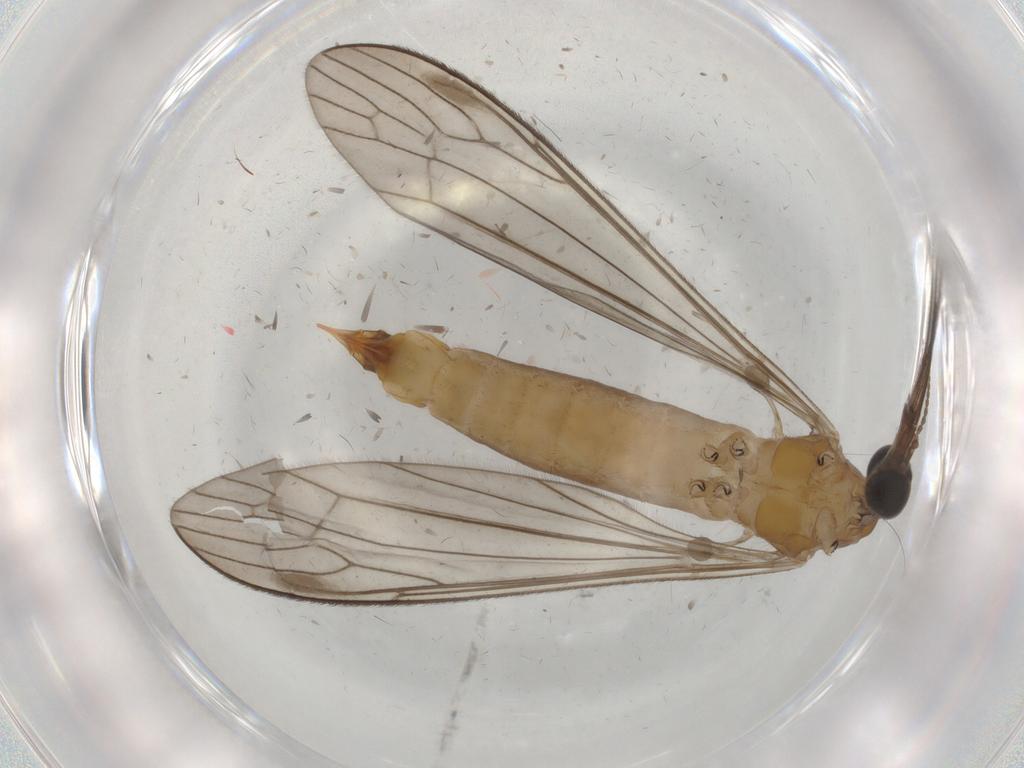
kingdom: Animalia
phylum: Arthropoda
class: Insecta
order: Diptera
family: Phoridae
